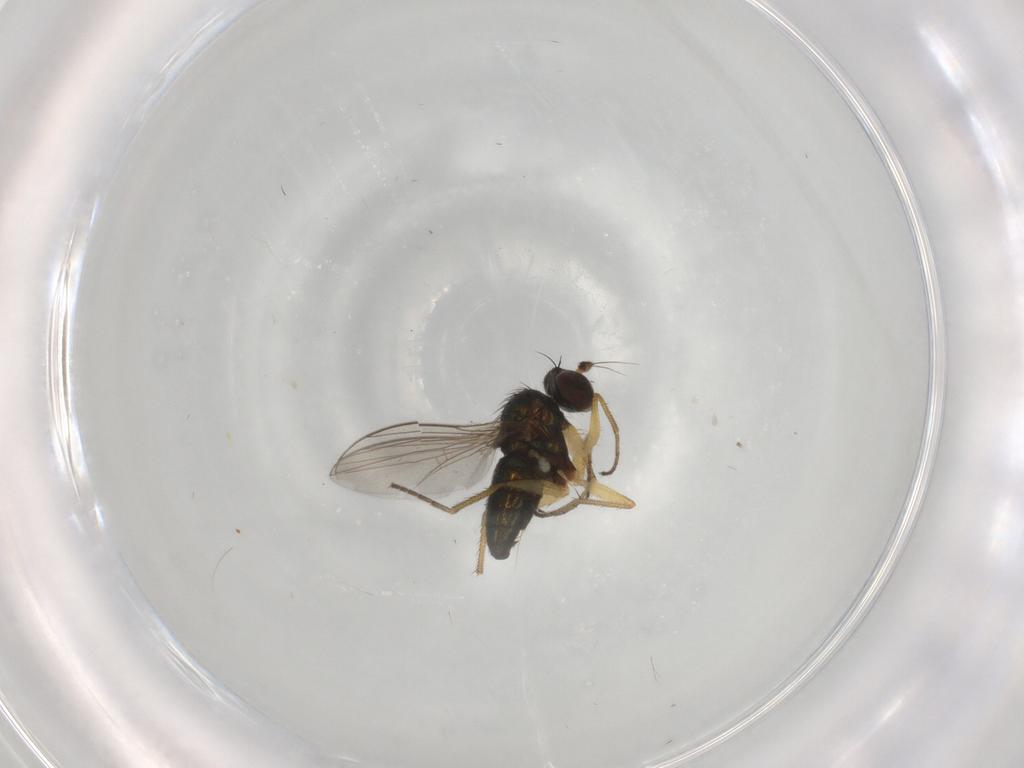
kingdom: Animalia
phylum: Arthropoda
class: Insecta
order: Diptera
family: Dolichopodidae
